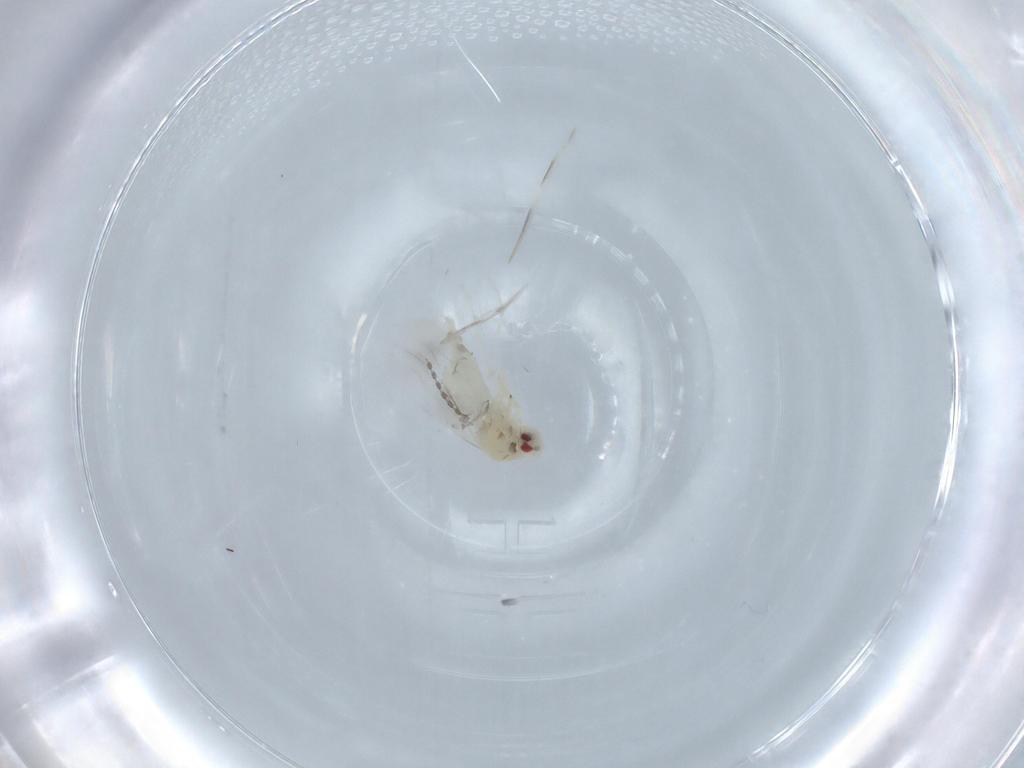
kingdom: Animalia
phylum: Arthropoda
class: Insecta
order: Hemiptera
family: Aleyrodidae
